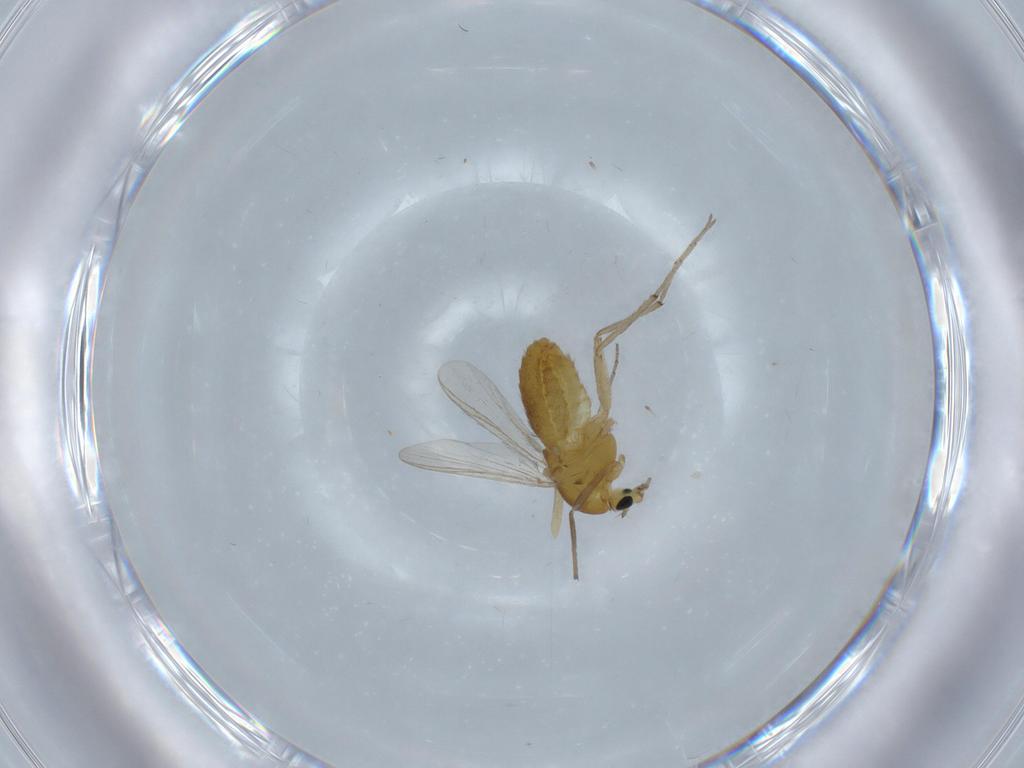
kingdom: Animalia
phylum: Arthropoda
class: Insecta
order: Diptera
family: Chironomidae
